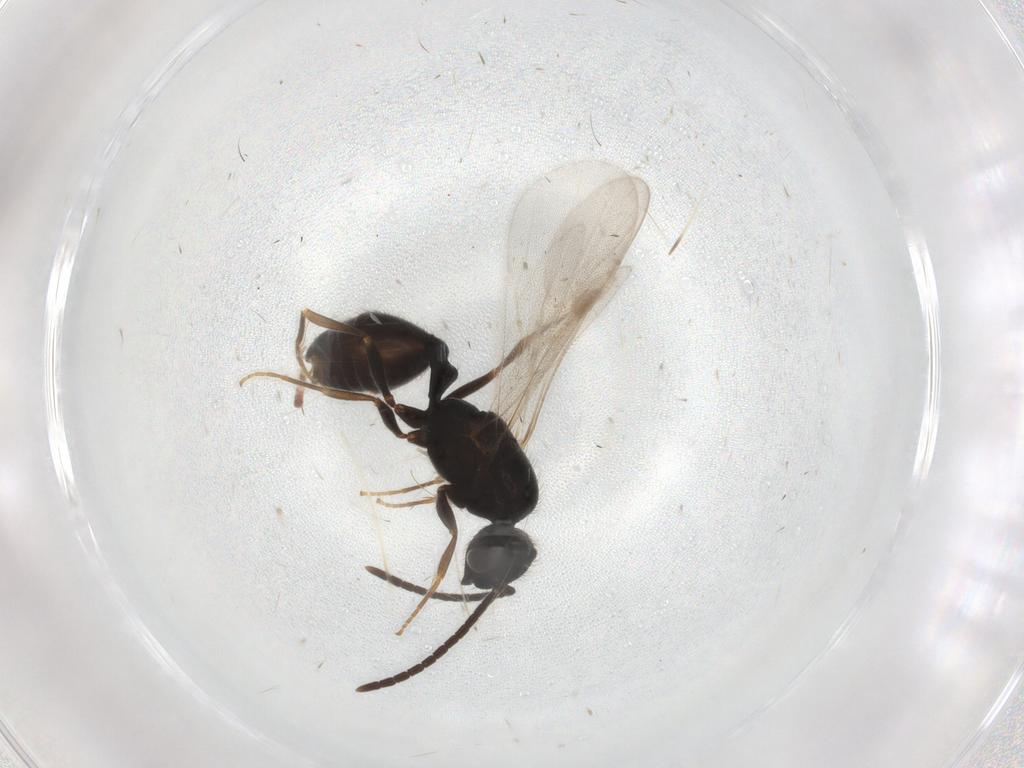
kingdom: Animalia
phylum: Arthropoda
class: Insecta
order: Hymenoptera
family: Formicidae
